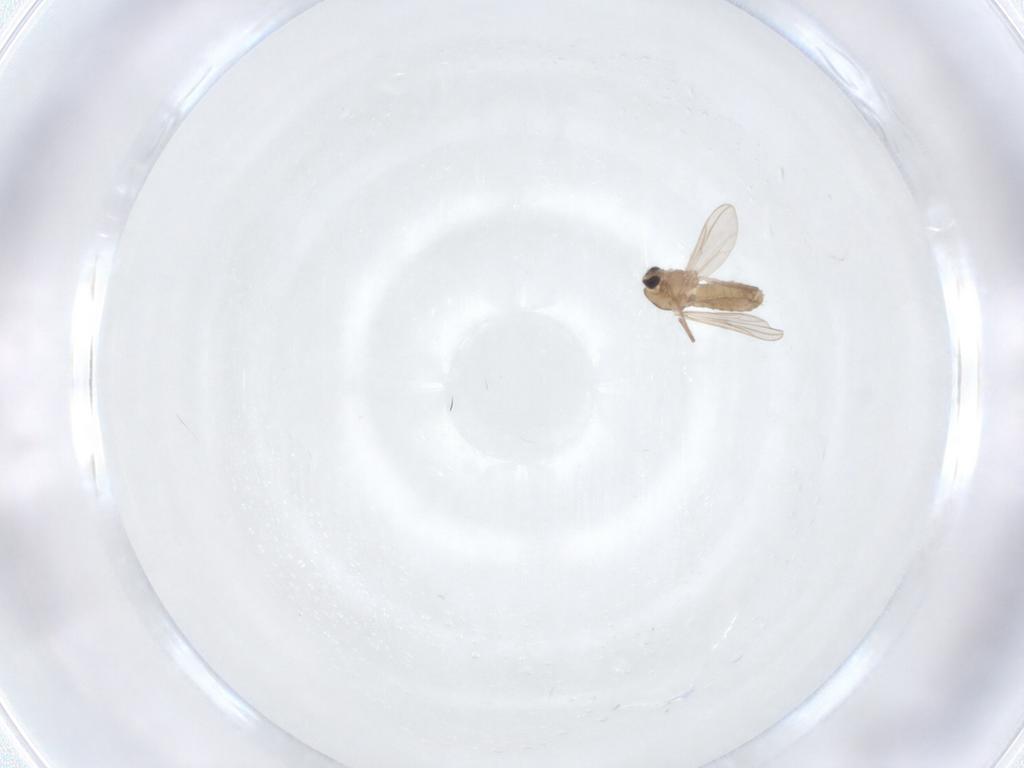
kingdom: Animalia
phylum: Arthropoda
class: Insecta
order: Diptera
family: Chironomidae
